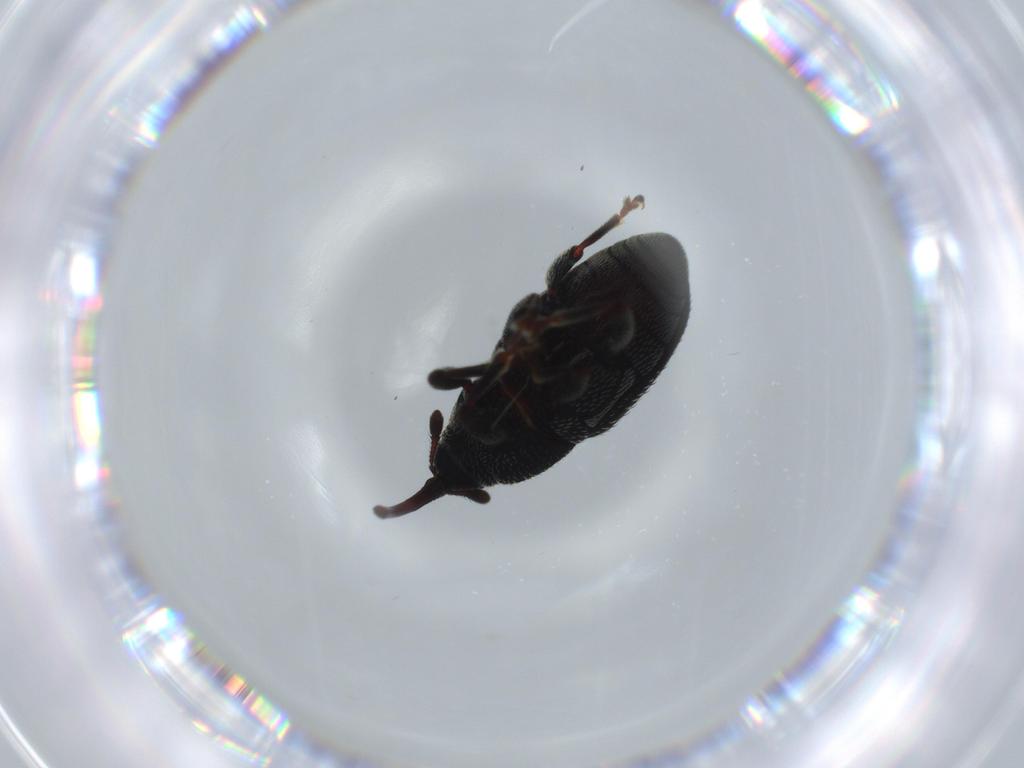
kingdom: Animalia
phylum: Arthropoda
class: Insecta
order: Coleoptera
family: Curculionidae
